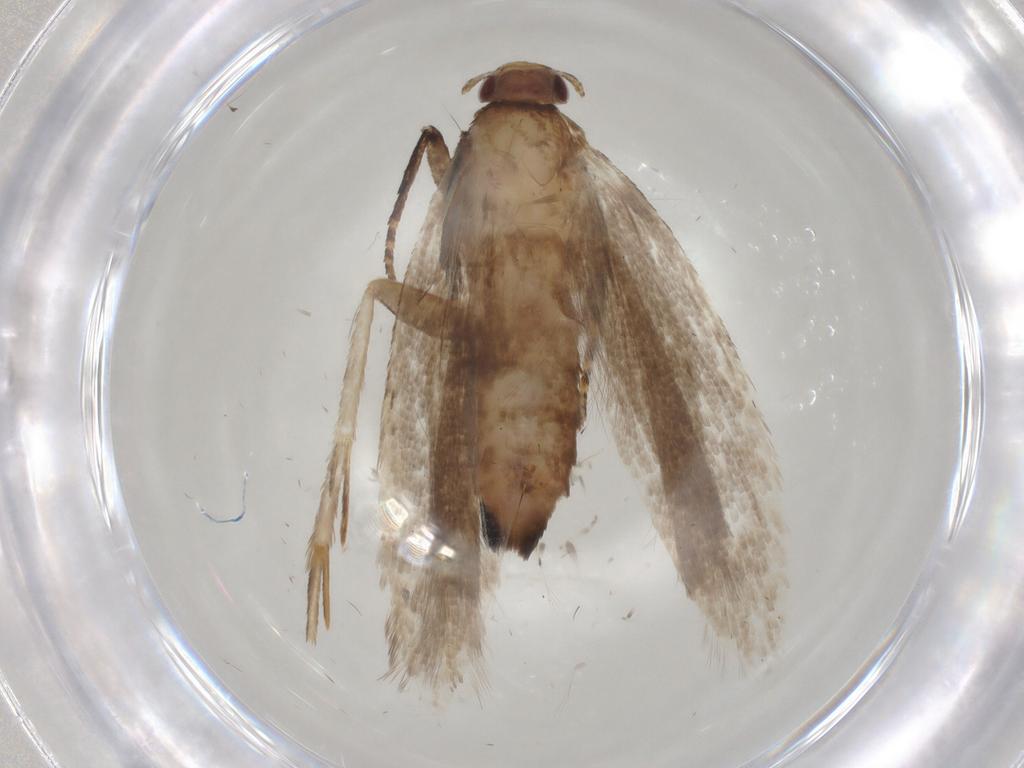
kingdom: Animalia
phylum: Arthropoda
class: Insecta
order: Lepidoptera
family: Gelechiidae
